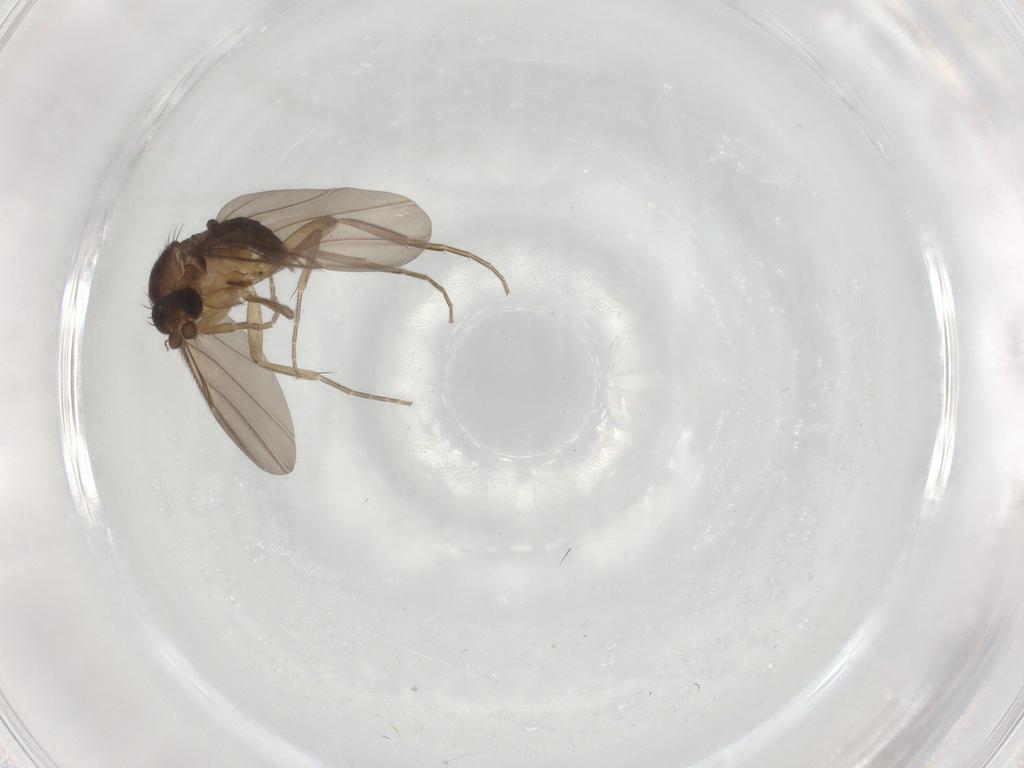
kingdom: Animalia
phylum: Arthropoda
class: Insecta
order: Diptera
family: Phoridae
